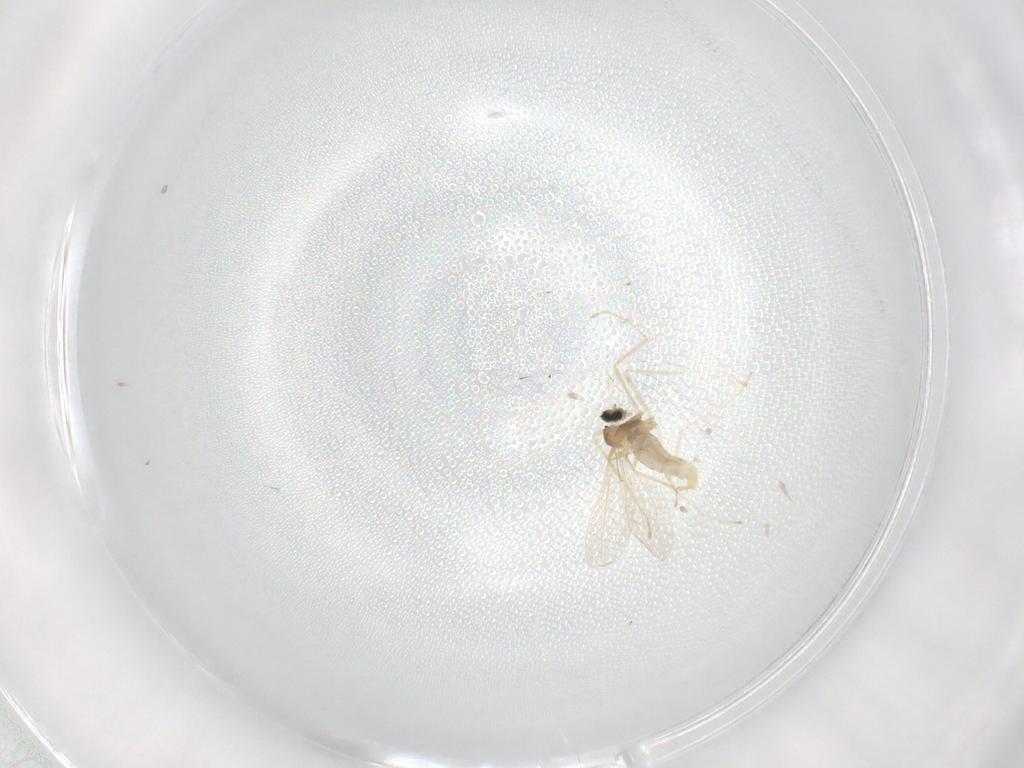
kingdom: Animalia
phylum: Arthropoda
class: Insecta
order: Diptera
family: Cecidomyiidae
